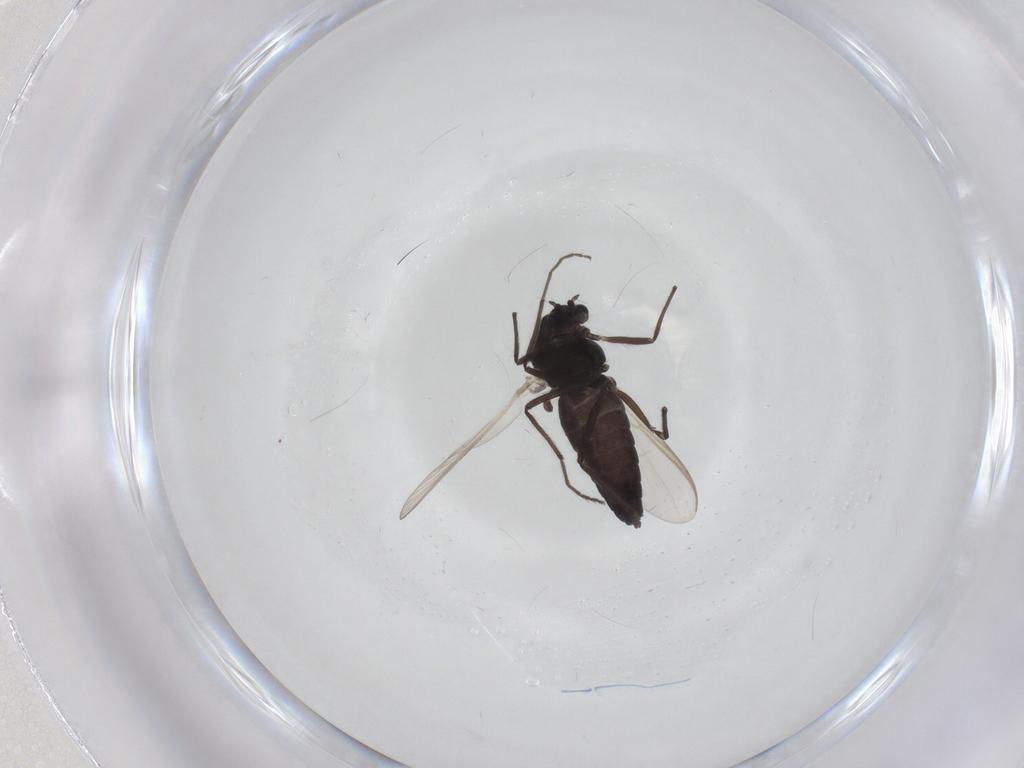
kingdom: Animalia
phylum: Arthropoda
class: Insecta
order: Diptera
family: Chironomidae
